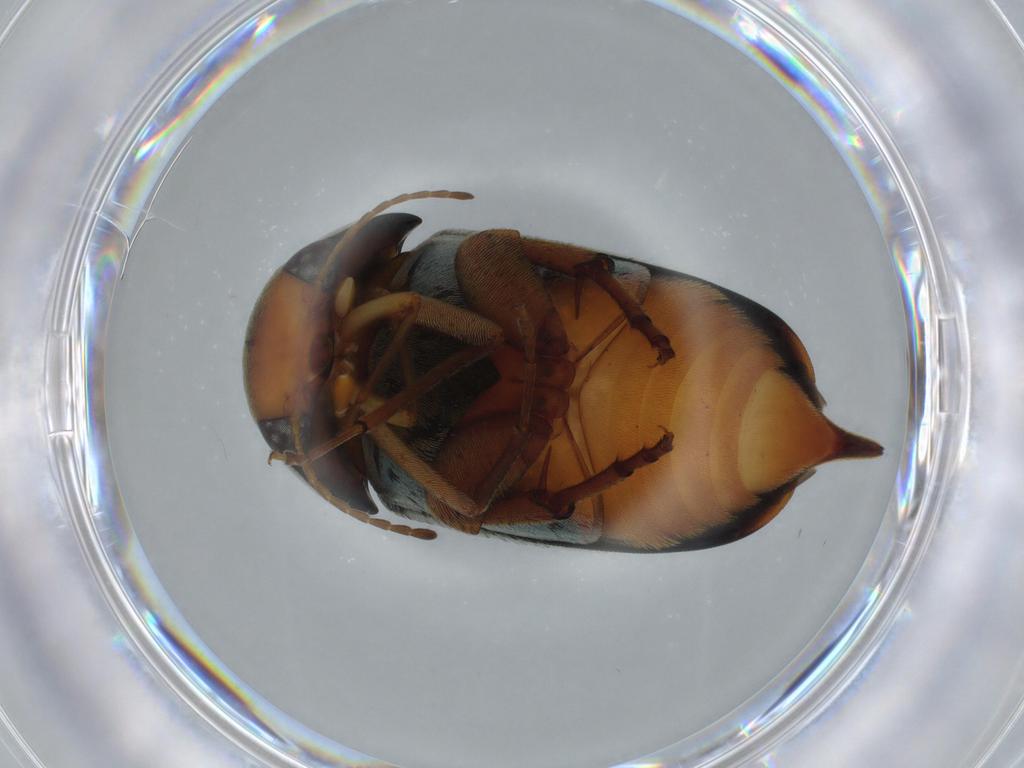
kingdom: Animalia
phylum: Arthropoda
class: Insecta
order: Coleoptera
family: Mordellidae
